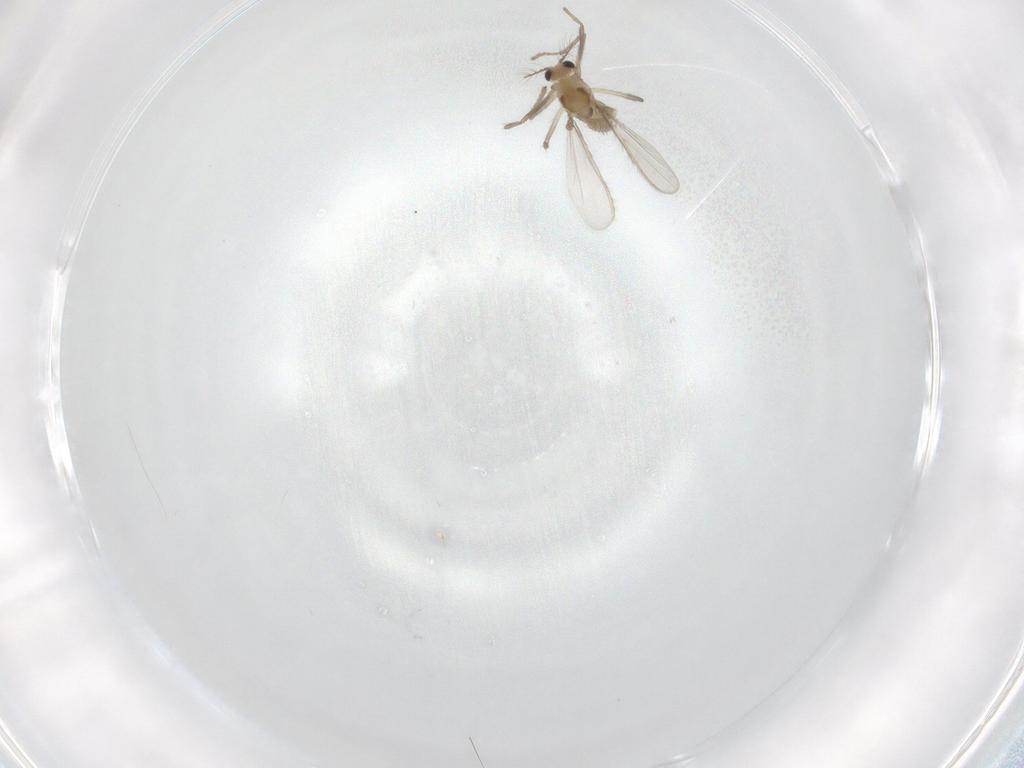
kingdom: Animalia
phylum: Arthropoda
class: Insecta
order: Diptera
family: Chironomidae
